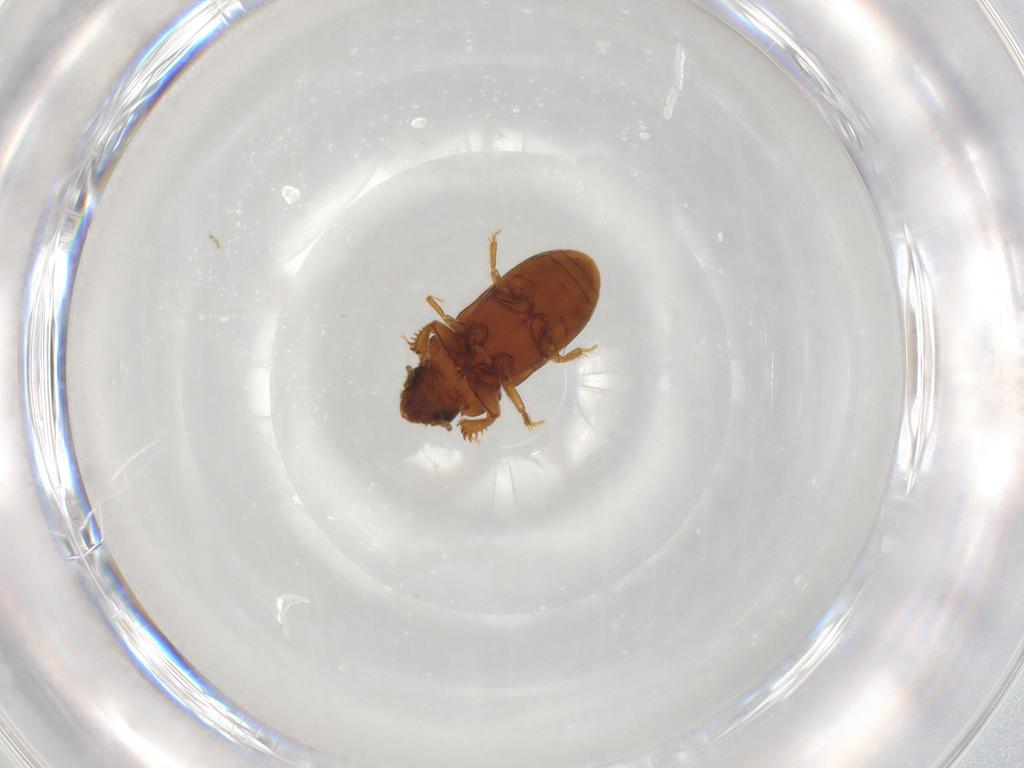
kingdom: Animalia
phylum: Arthropoda
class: Insecta
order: Coleoptera
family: Heteroceridae
